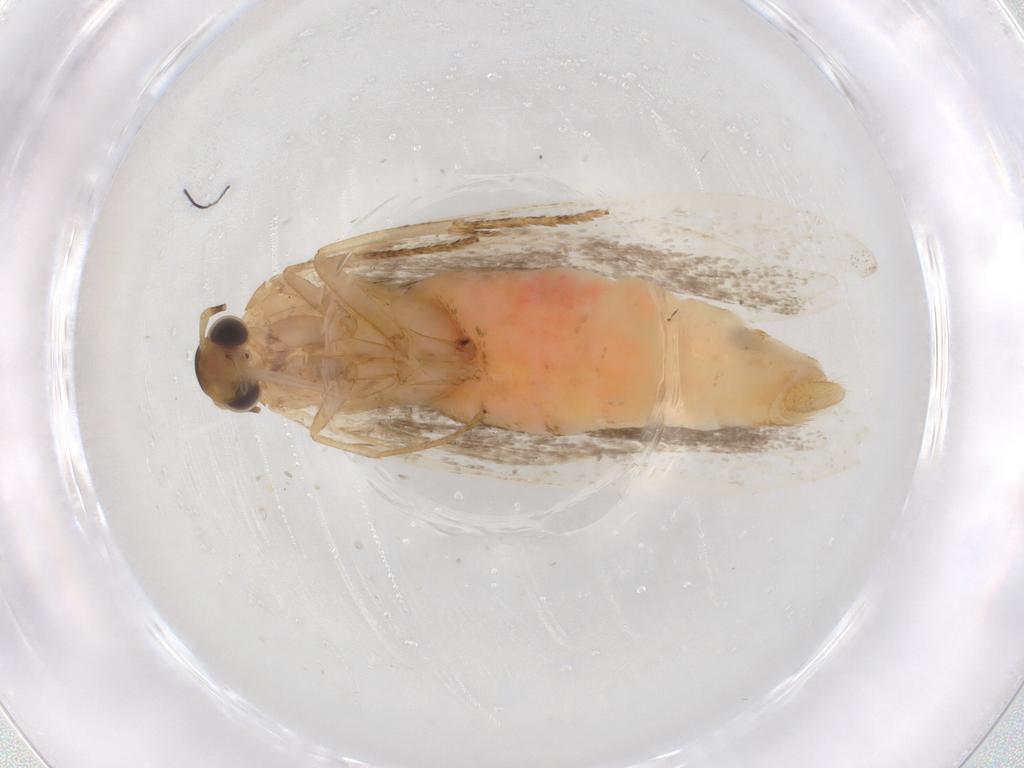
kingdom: Animalia
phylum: Arthropoda
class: Insecta
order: Lepidoptera
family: Gelechiidae
